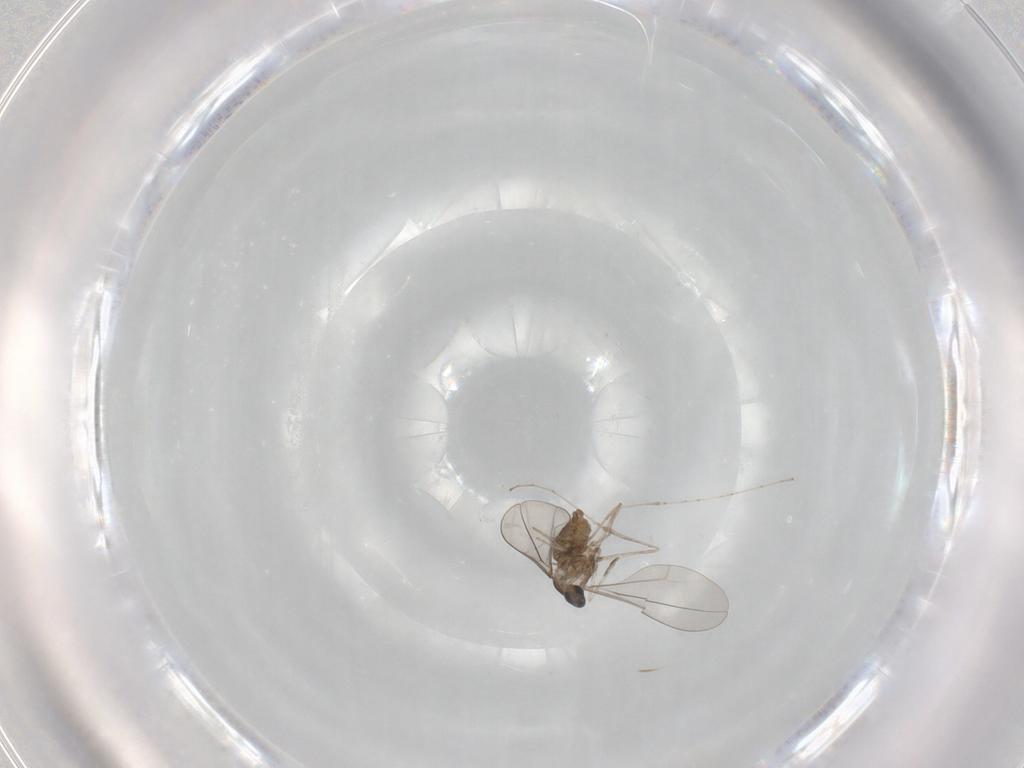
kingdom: Animalia
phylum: Arthropoda
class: Insecta
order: Diptera
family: Cecidomyiidae
